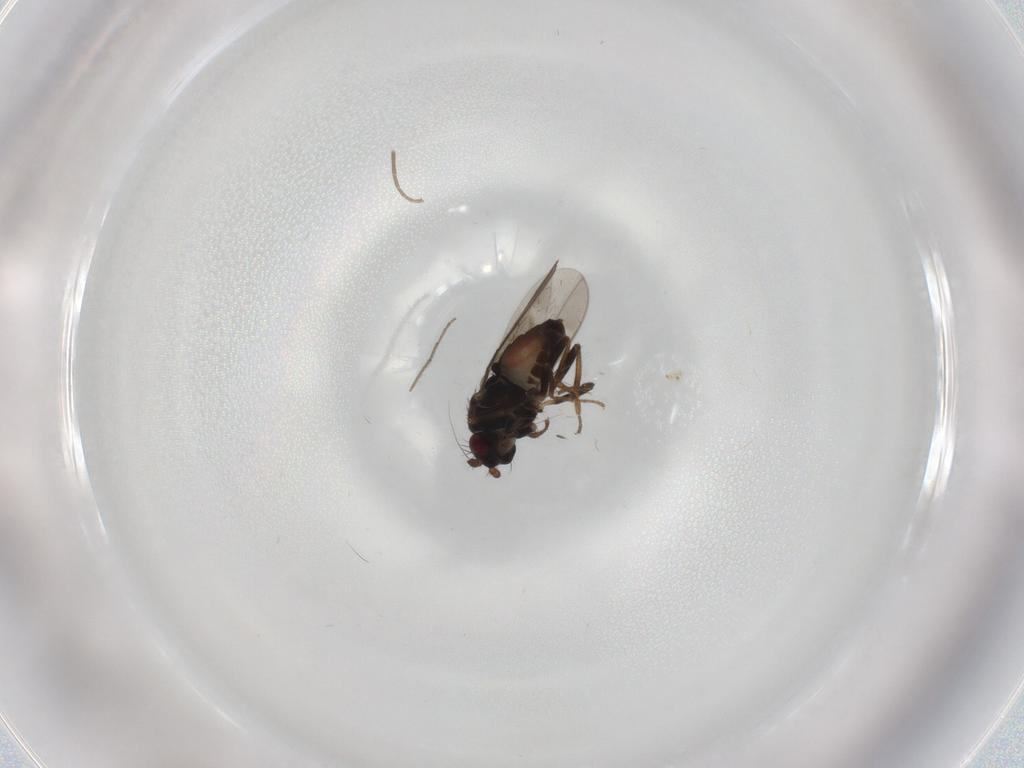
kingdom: Animalia
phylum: Arthropoda
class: Insecta
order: Diptera
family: Sphaeroceridae
